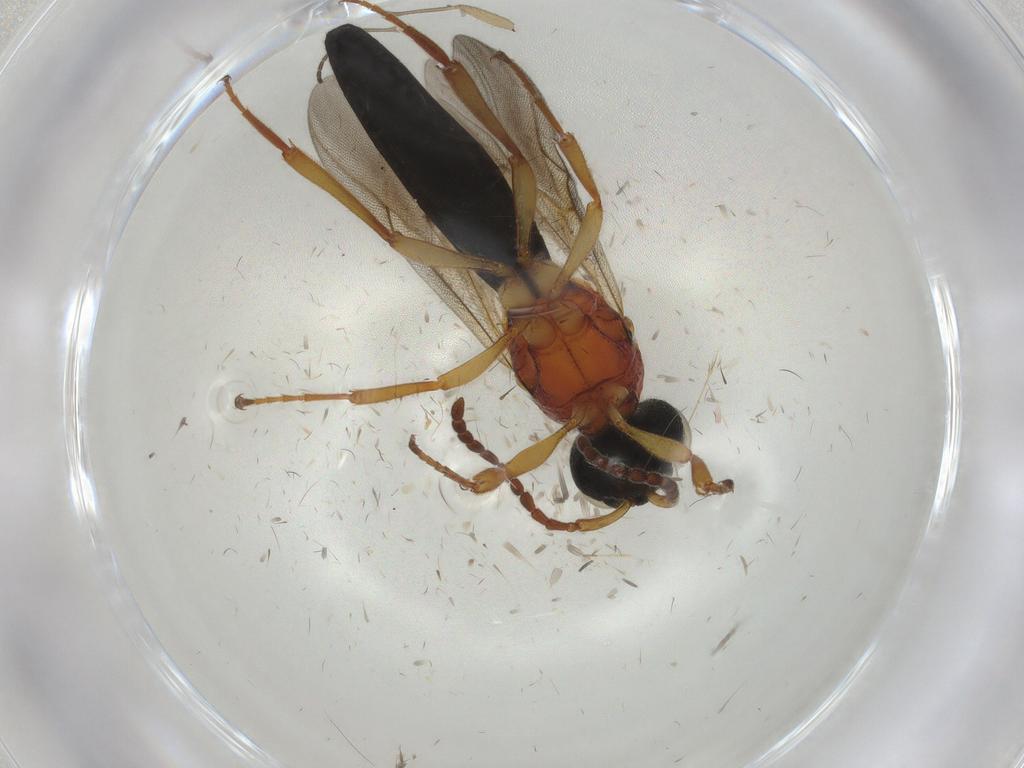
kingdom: Animalia
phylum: Arthropoda
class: Insecta
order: Hymenoptera
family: Scelionidae
